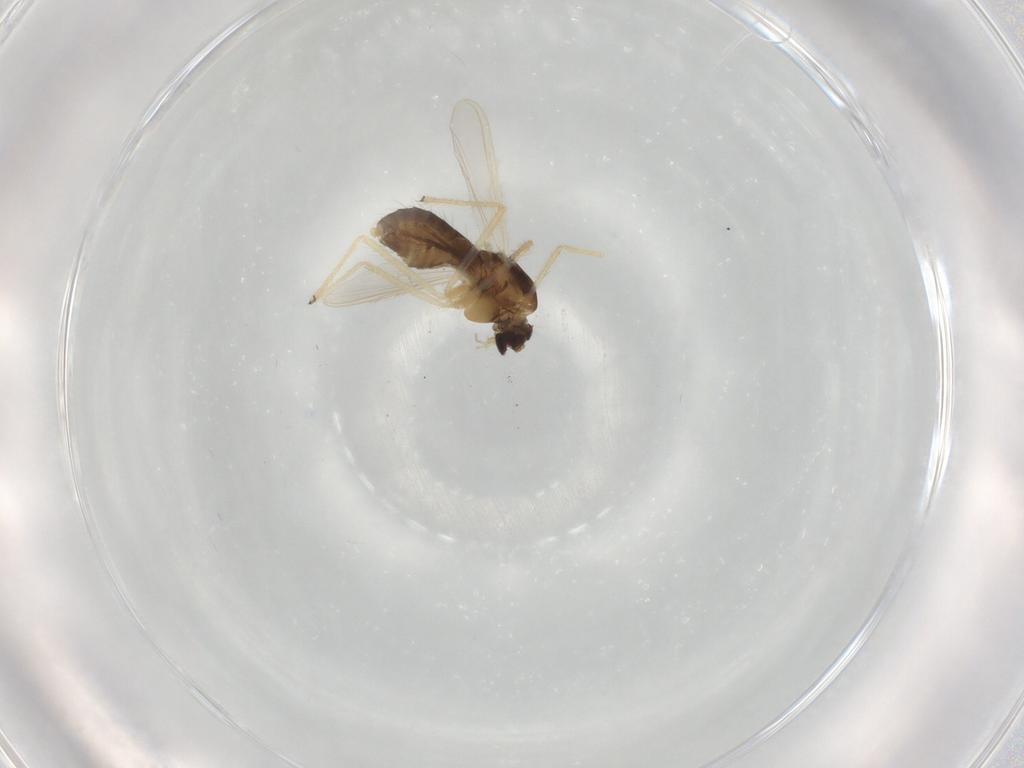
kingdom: Animalia
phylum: Arthropoda
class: Insecta
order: Diptera
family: Chironomidae
